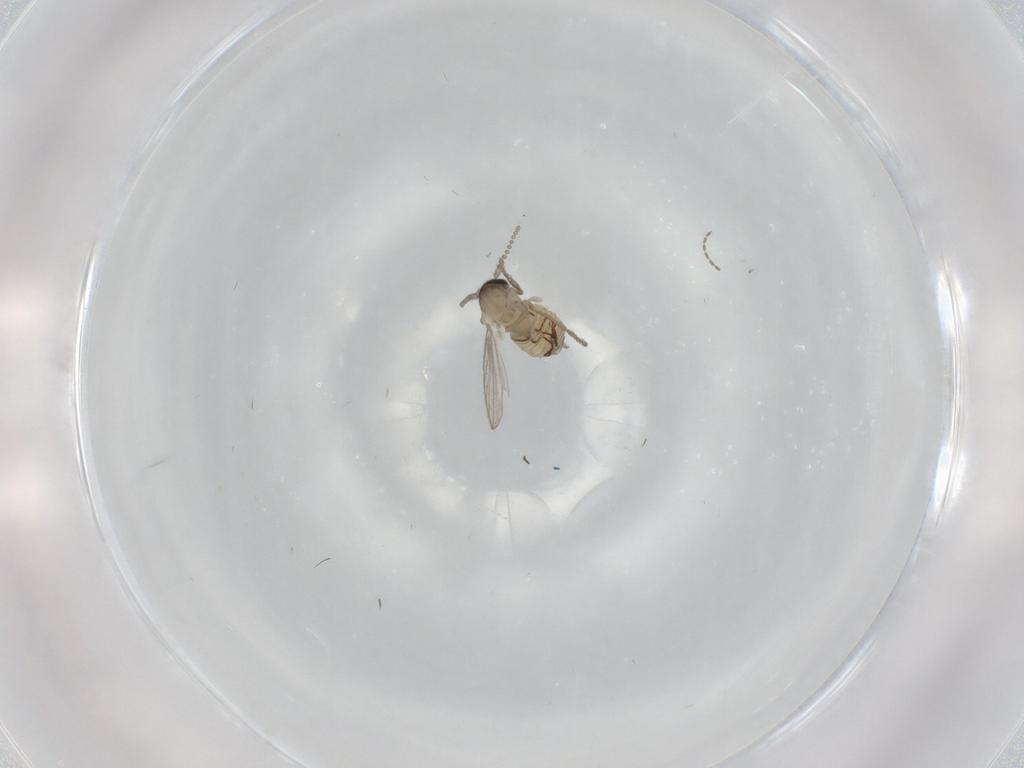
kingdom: Animalia
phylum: Arthropoda
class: Insecta
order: Diptera
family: Psychodidae
